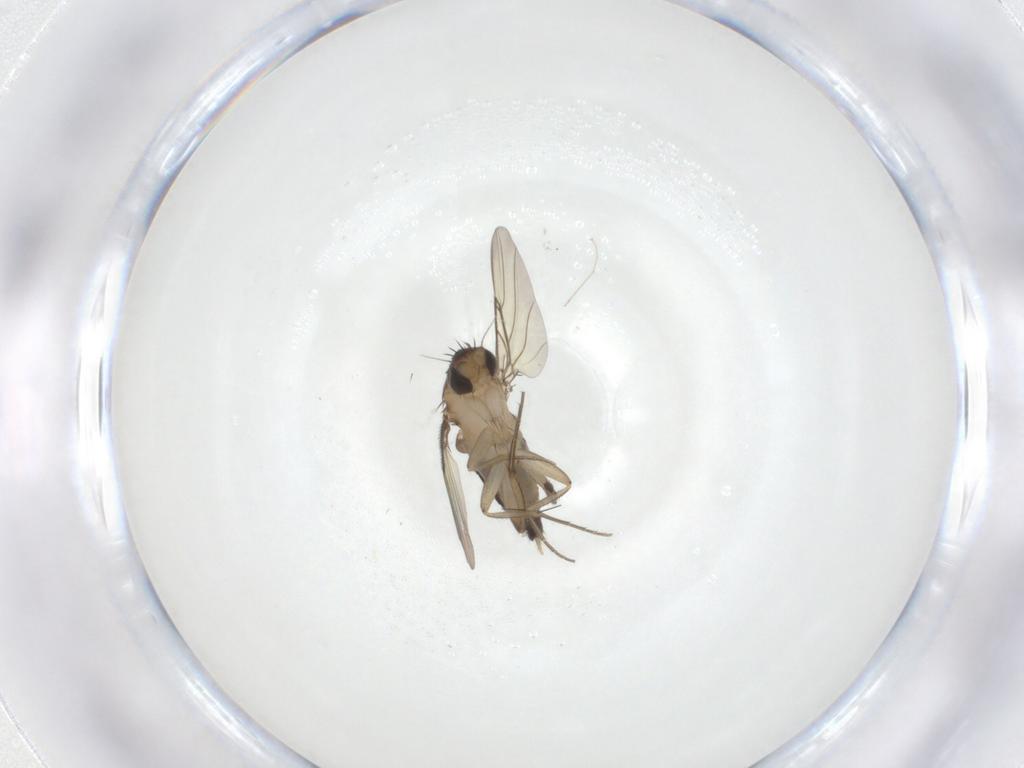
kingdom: Animalia
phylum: Arthropoda
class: Insecta
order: Diptera
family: Phoridae
